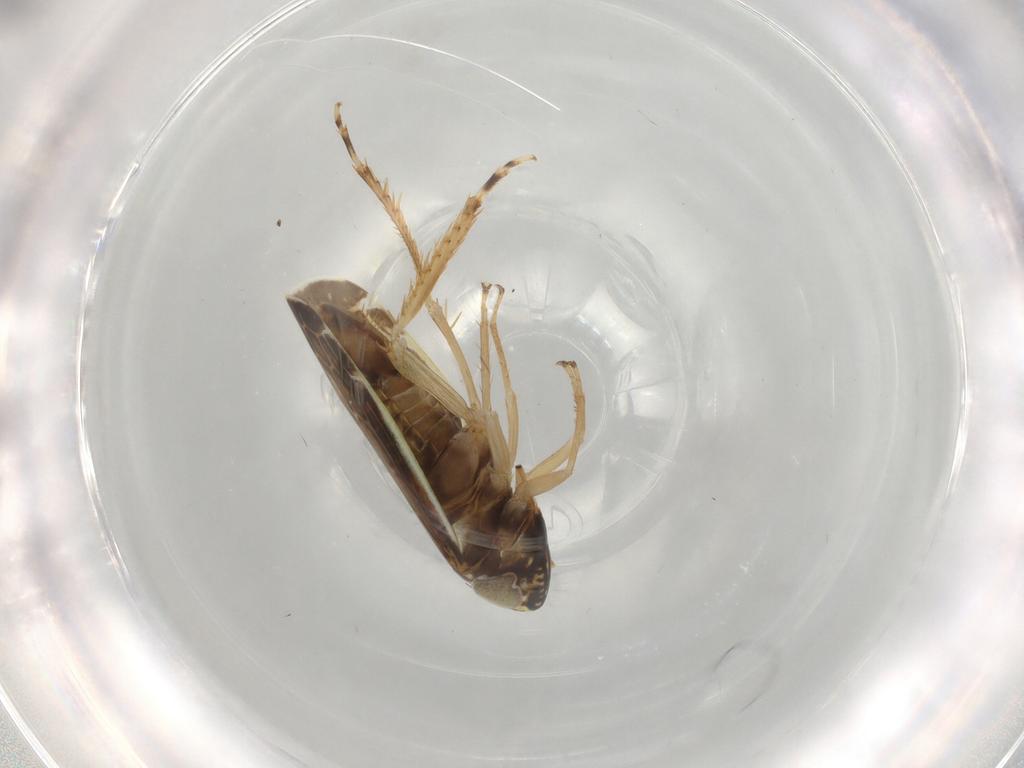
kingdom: Animalia
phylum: Arthropoda
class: Insecta
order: Hemiptera
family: Cicadellidae
